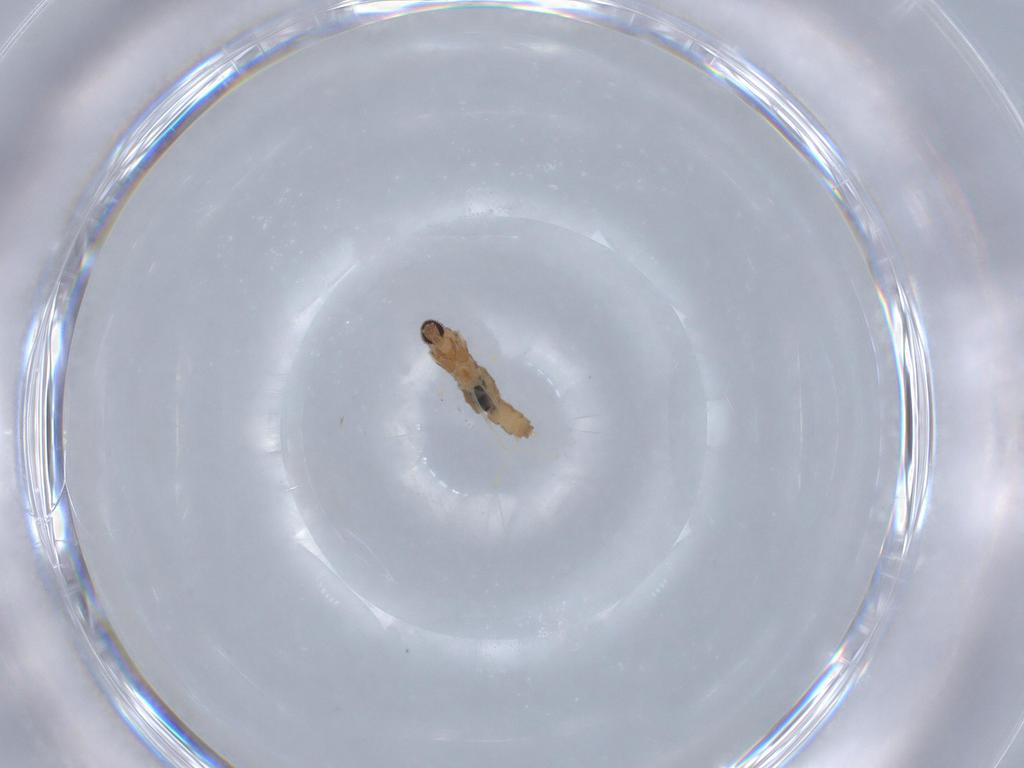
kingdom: Animalia
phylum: Arthropoda
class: Insecta
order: Diptera
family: Cecidomyiidae
